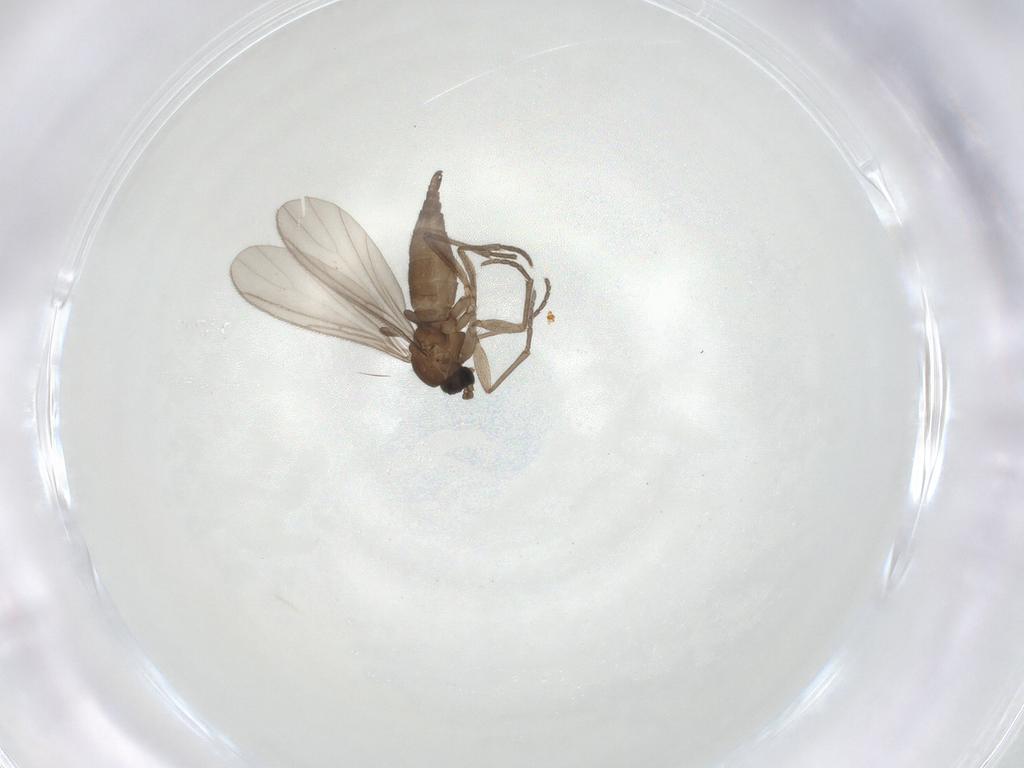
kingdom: Animalia
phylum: Arthropoda
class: Insecta
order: Diptera
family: Sciaridae
